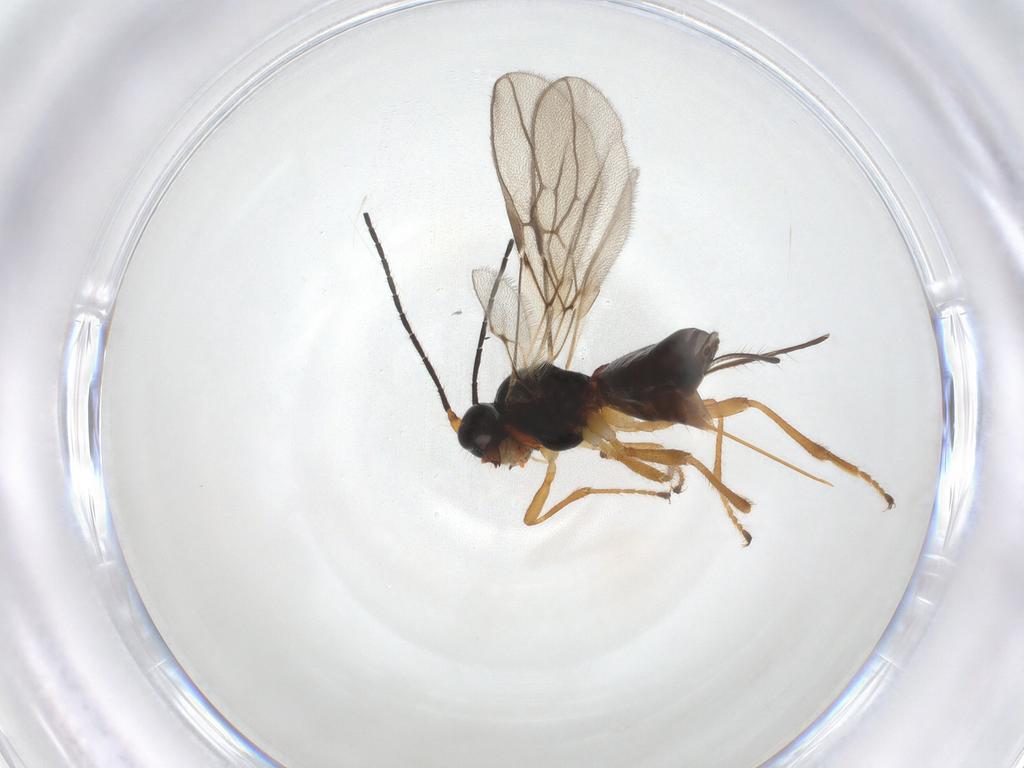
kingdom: Animalia
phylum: Arthropoda
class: Insecta
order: Hymenoptera
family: Braconidae
